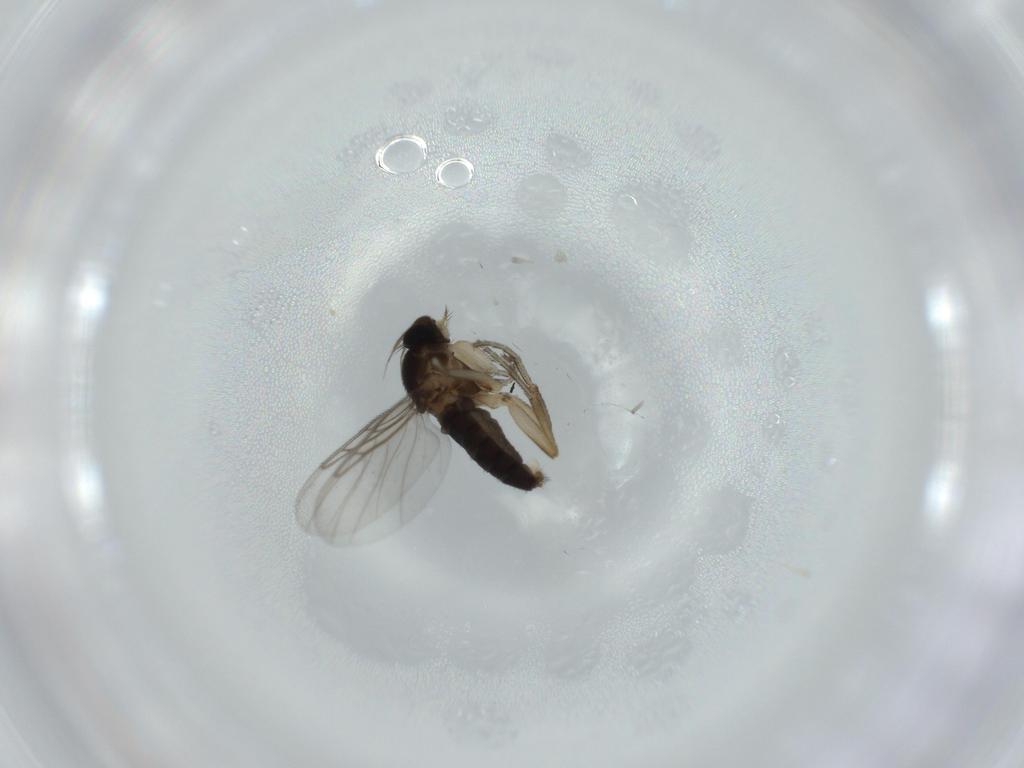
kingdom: Animalia
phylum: Arthropoda
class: Insecta
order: Diptera
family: Phoridae
